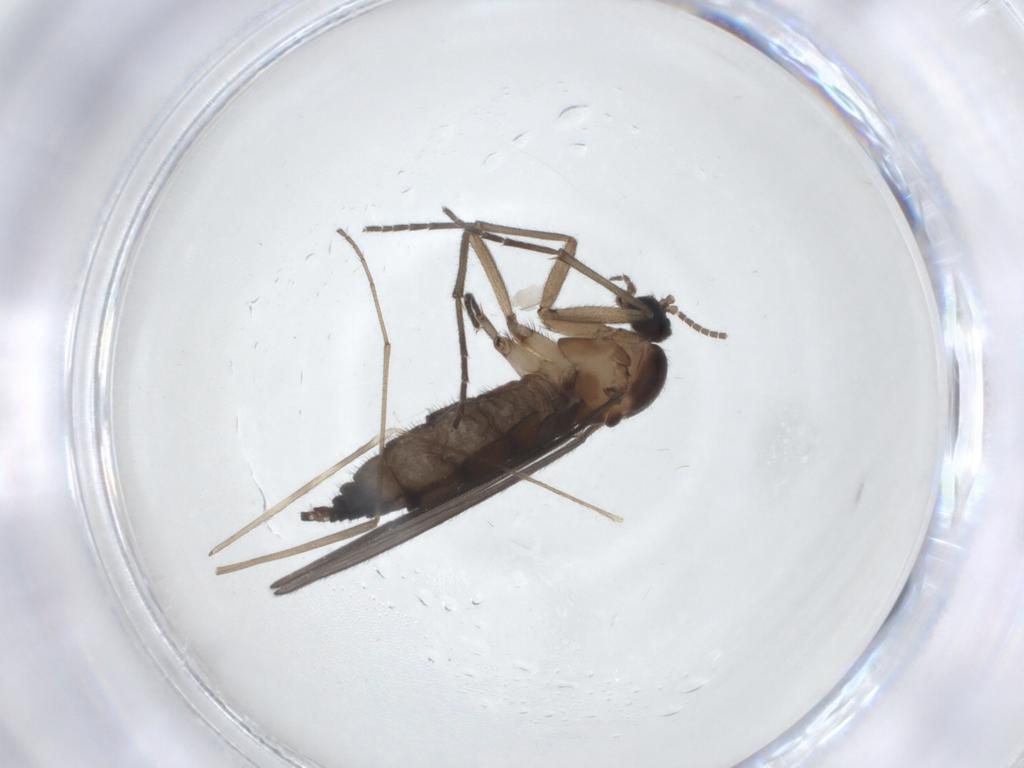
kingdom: Animalia
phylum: Arthropoda
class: Insecta
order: Diptera
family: Limoniidae
